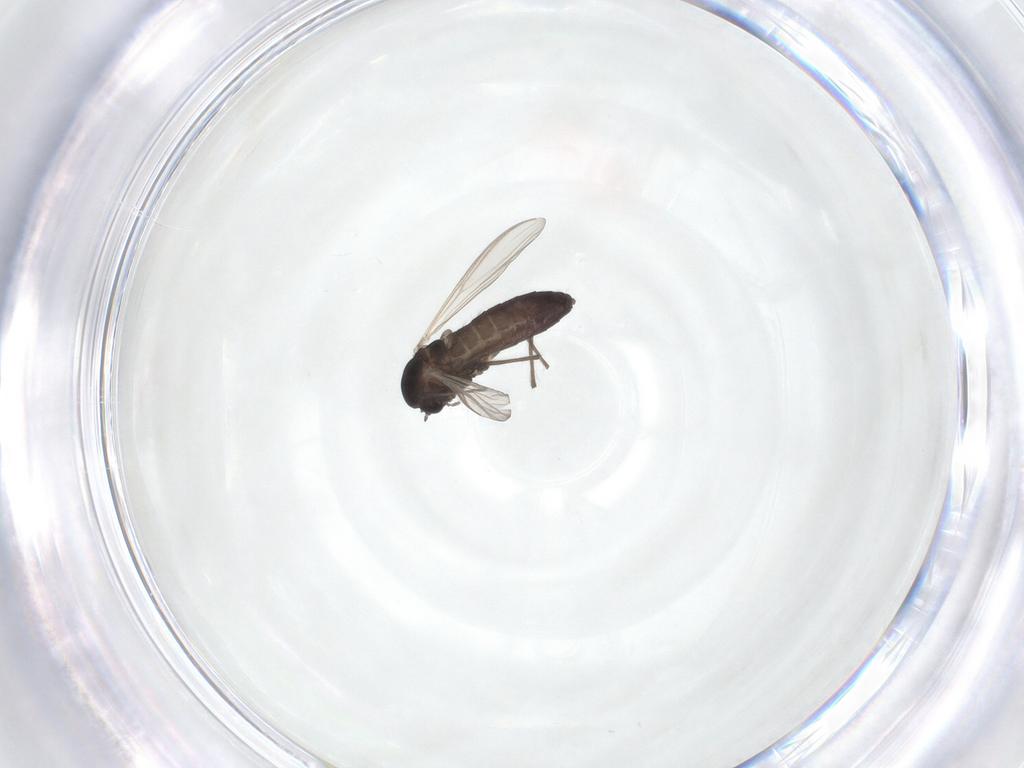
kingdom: Animalia
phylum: Arthropoda
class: Insecta
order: Diptera
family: Chironomidae
